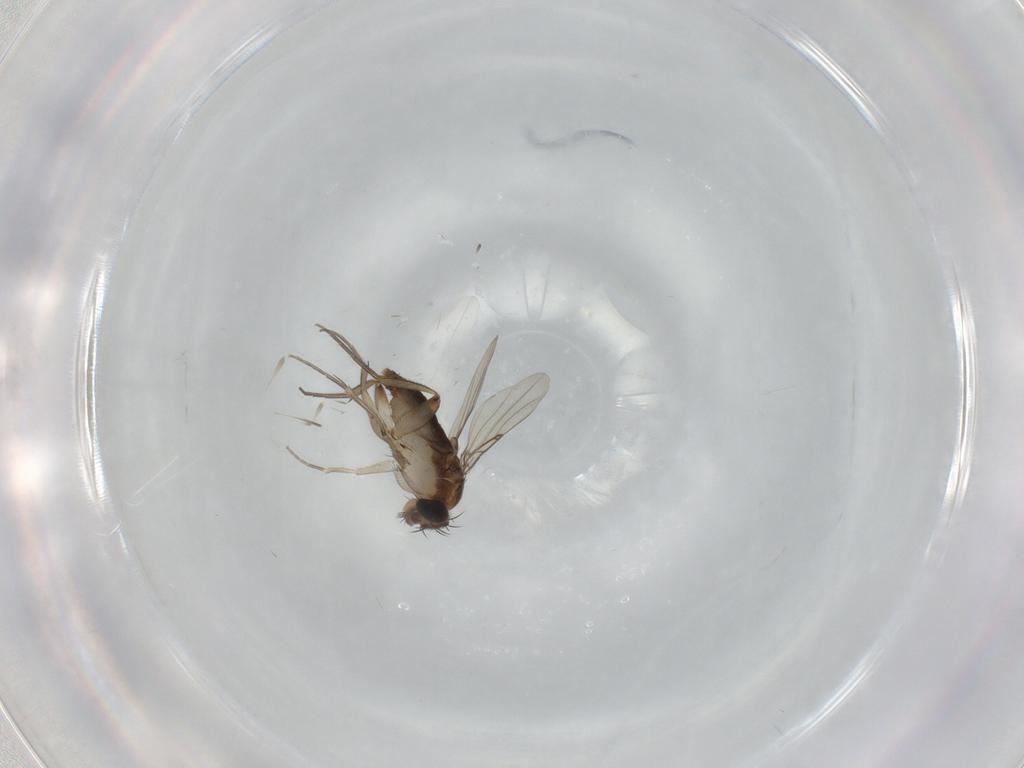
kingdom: Animalia
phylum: Arthropoda
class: Insecta
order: Diptera
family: Phoridae
